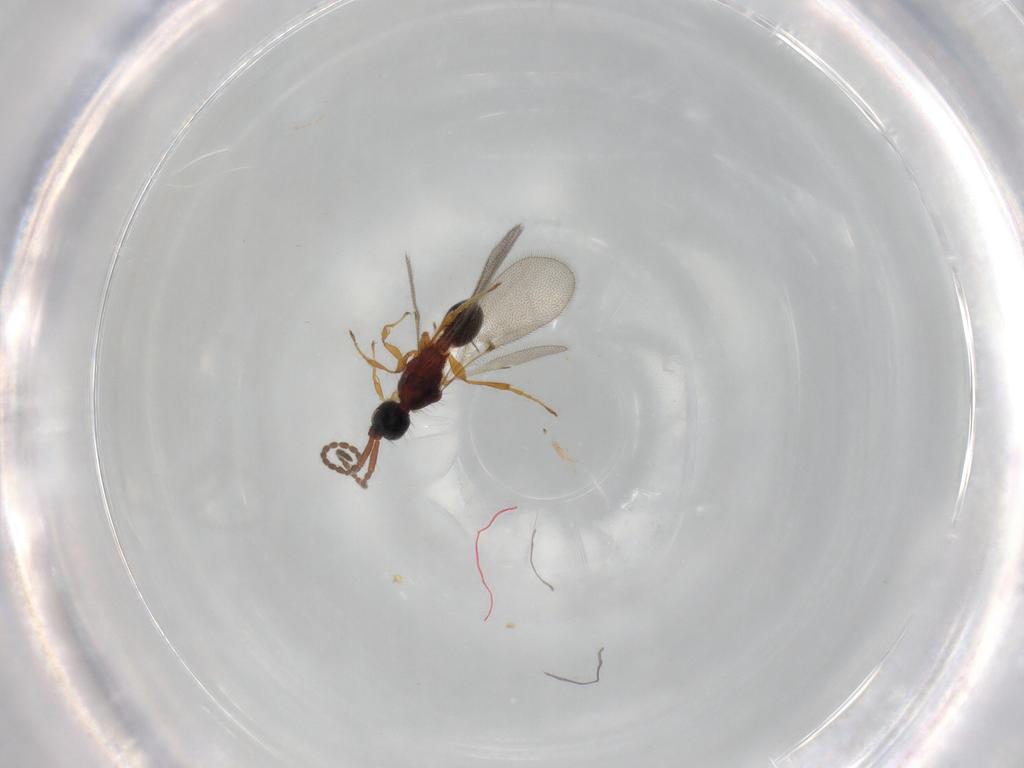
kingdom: Animalia
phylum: Arthropoda
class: Insecta
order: Hymenoptera
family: Diapriidae
